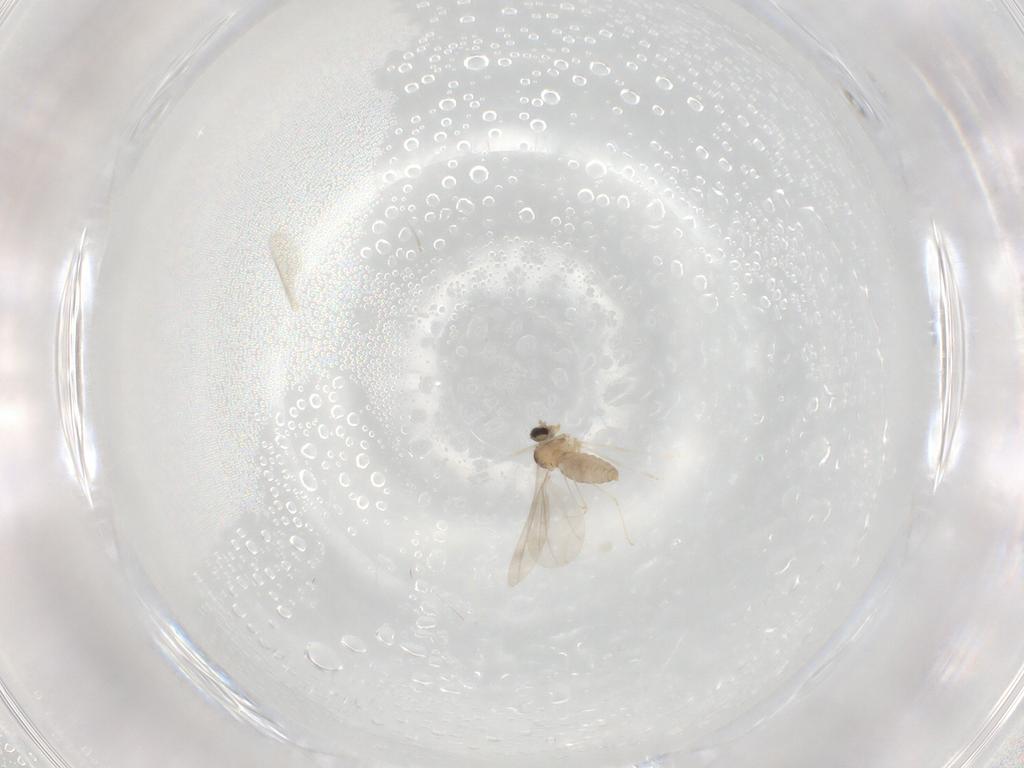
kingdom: Animalia
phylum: Arthropoda
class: Insecta
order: Diptera
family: Cecidomyiidae
